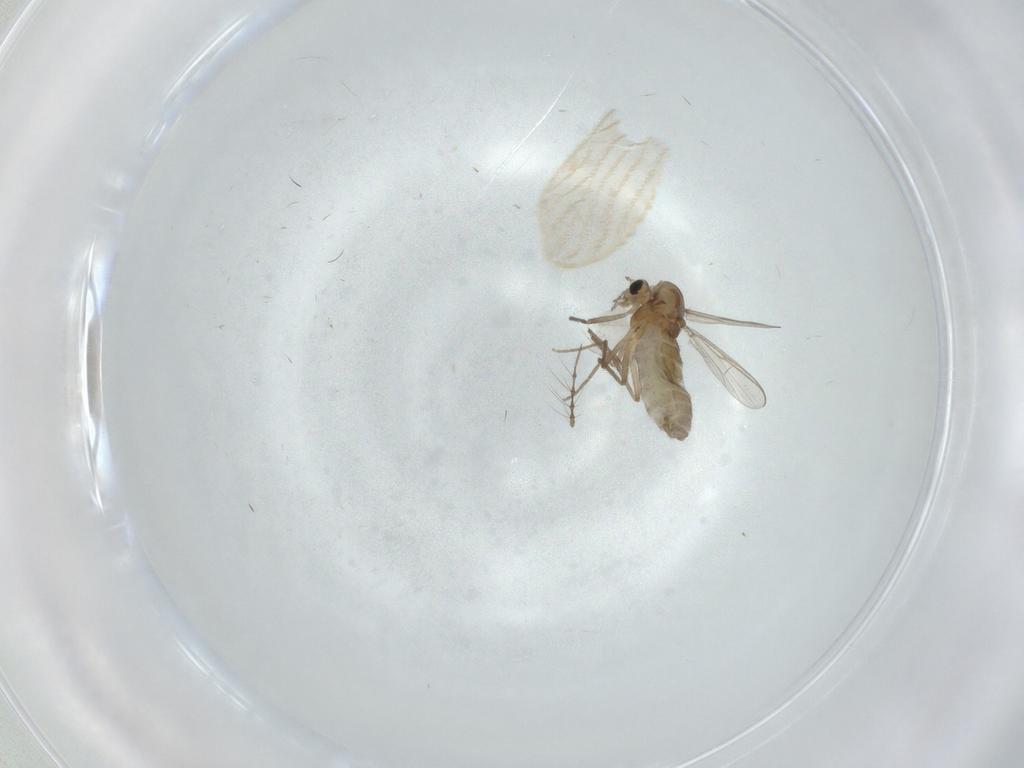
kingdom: Animalia
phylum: Arthropoda
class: Insecta
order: Diptera
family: Chironomidae
